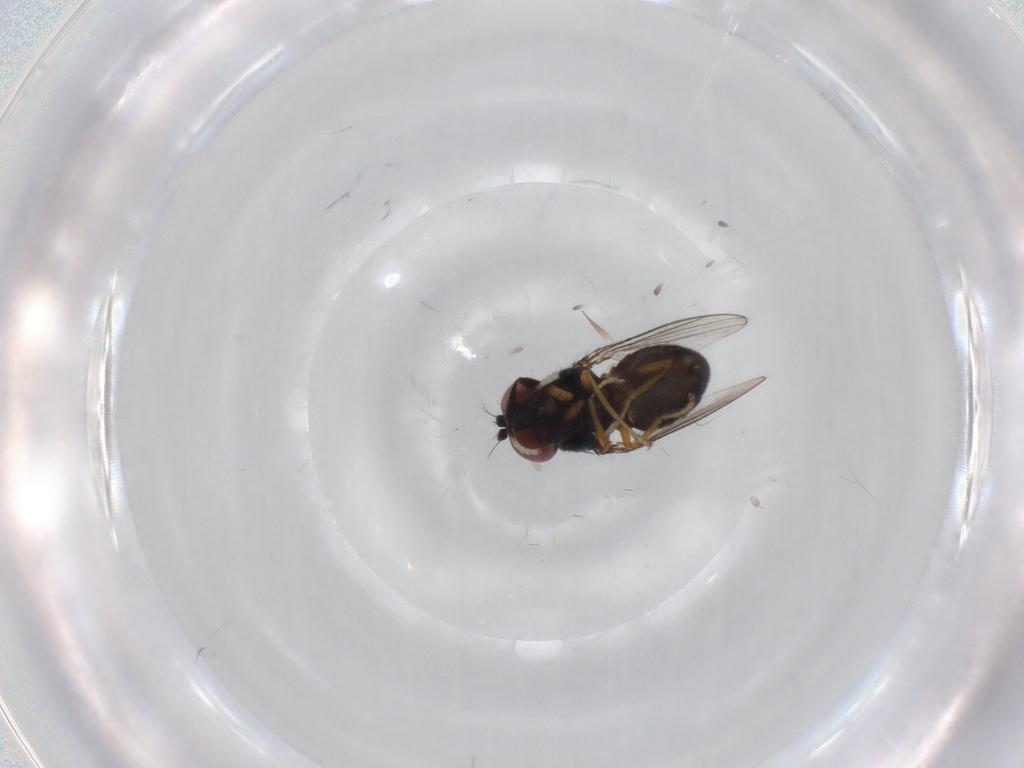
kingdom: Animalia
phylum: Arthropoda
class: Insecta
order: Diptera
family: Ephydridae
